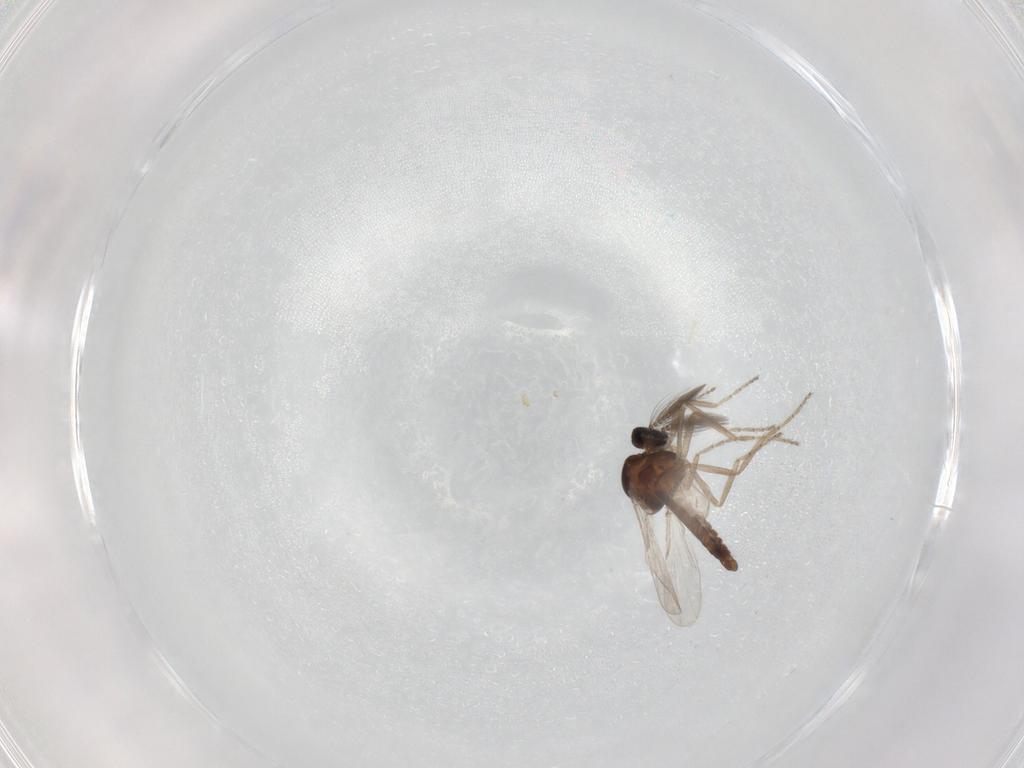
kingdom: Animalia
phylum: Arthropoda
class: Insecta
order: Diptera
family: Ceratopogonidae
